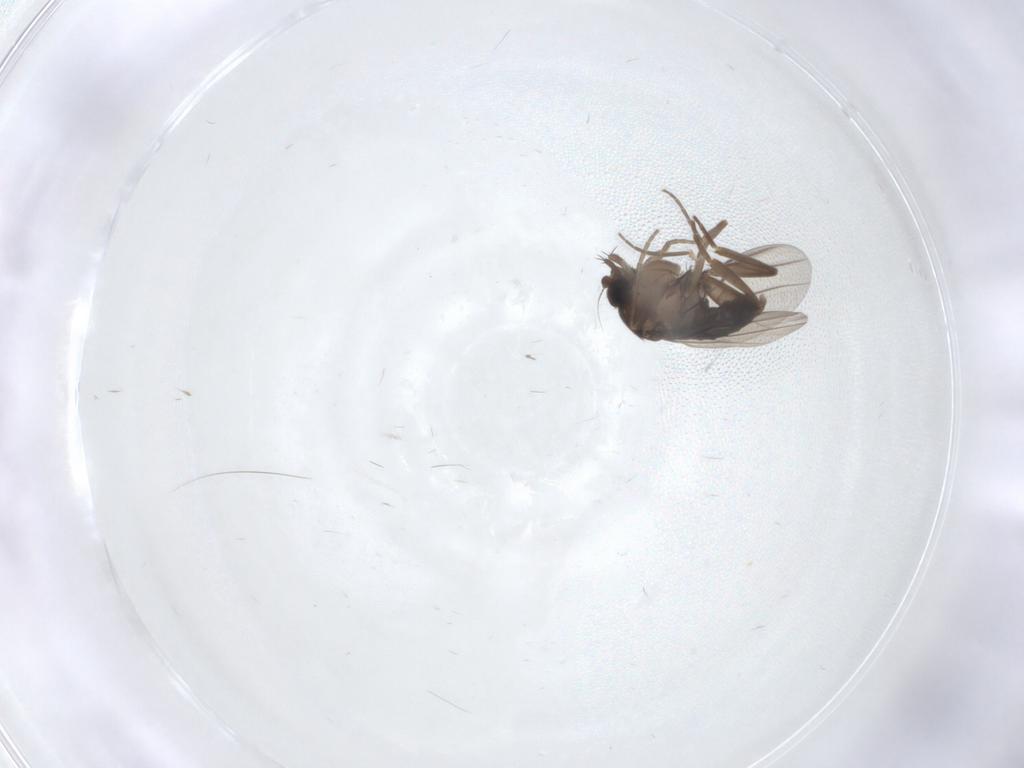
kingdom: Animalia
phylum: Arthropoda
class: Insecta
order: Diptera
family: Phoridae
